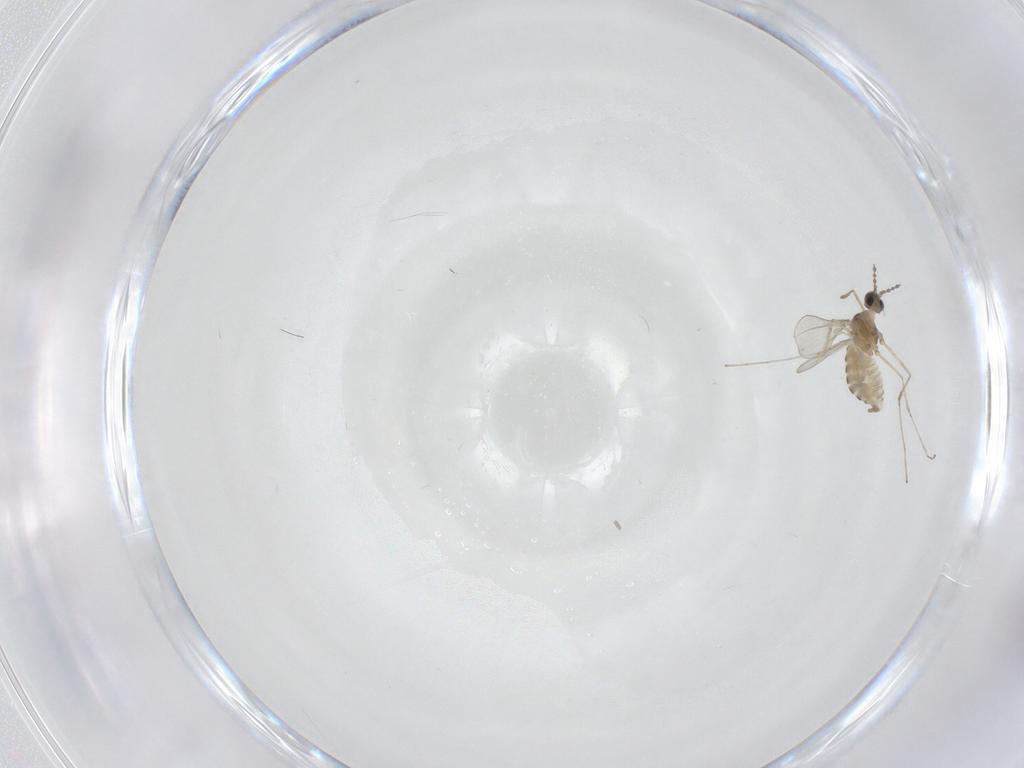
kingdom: Animalia
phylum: Arthropoda
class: Insecta
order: Diptera
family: Cecidomyiidae
